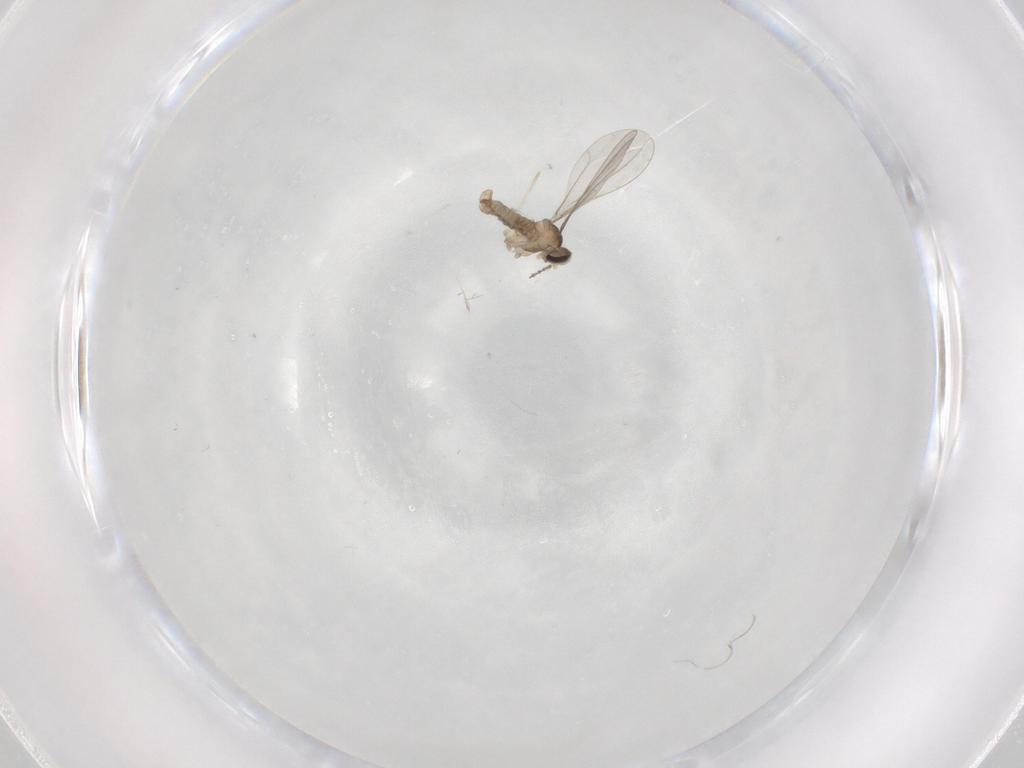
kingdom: Animalia
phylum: Arthropoda
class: Insecta
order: Diptera
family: Cecidomyiidae
